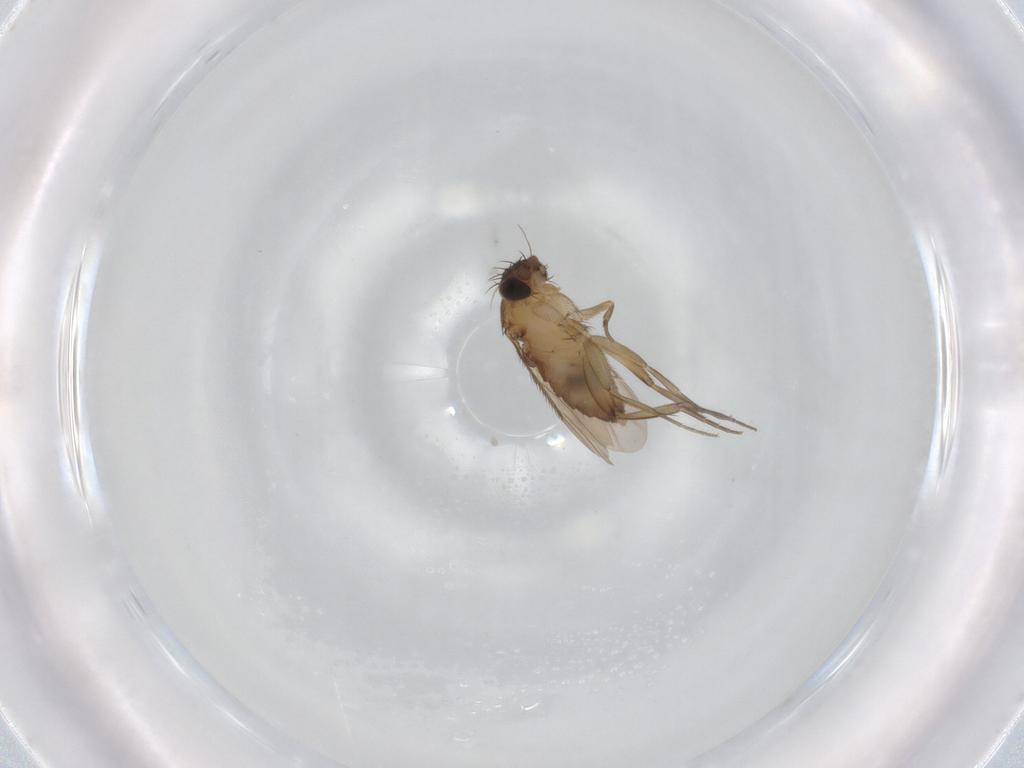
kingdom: Animalia
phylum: Arthropoda
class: Insecta
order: Diptera
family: Phoridae
